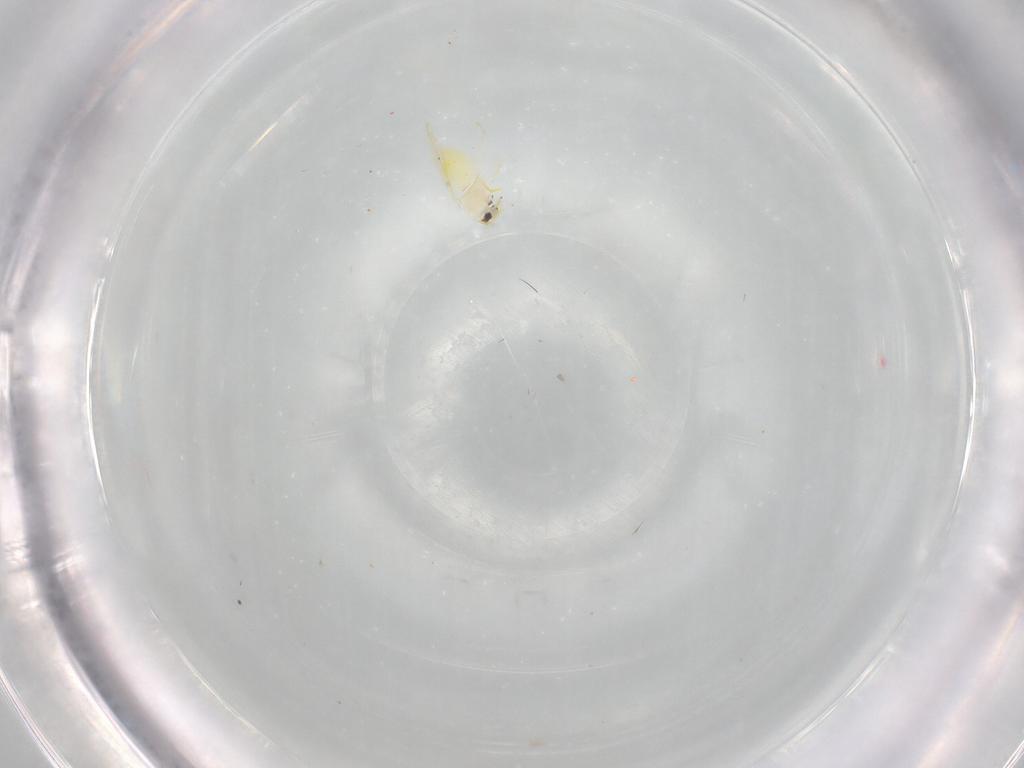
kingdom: Animalia
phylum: Arthropoda
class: Insecta
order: Hemiptera
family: Aleyrodidae
